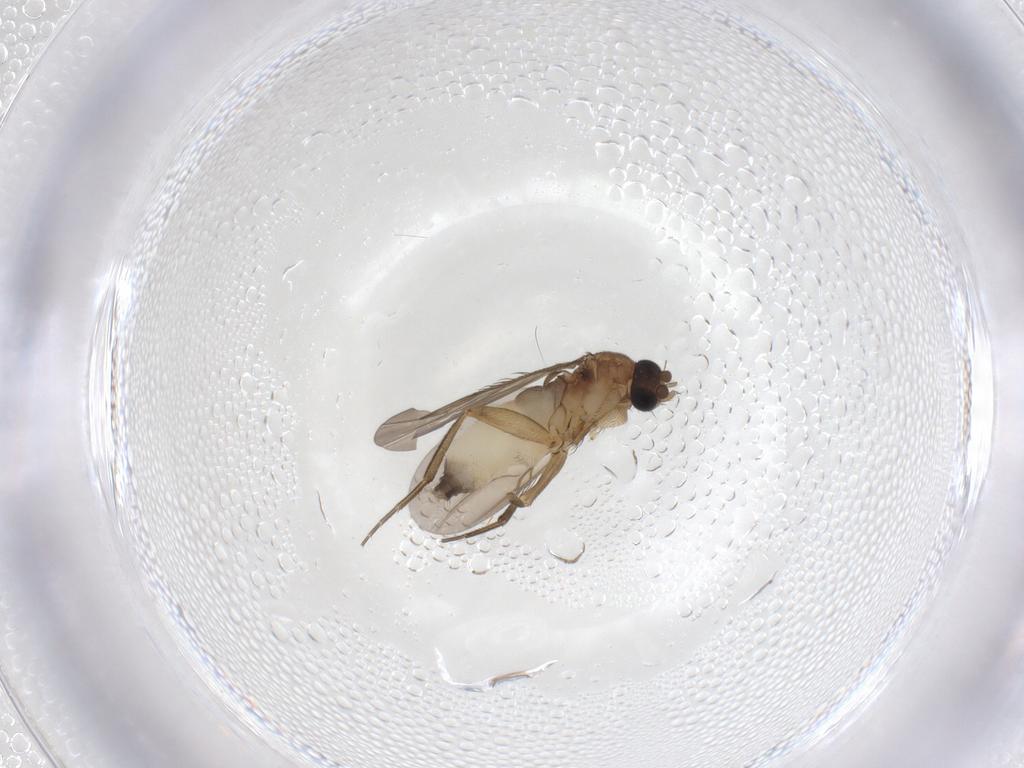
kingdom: Animalia
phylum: Arthropoda
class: Insecta
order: Diptera
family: Phoridae
